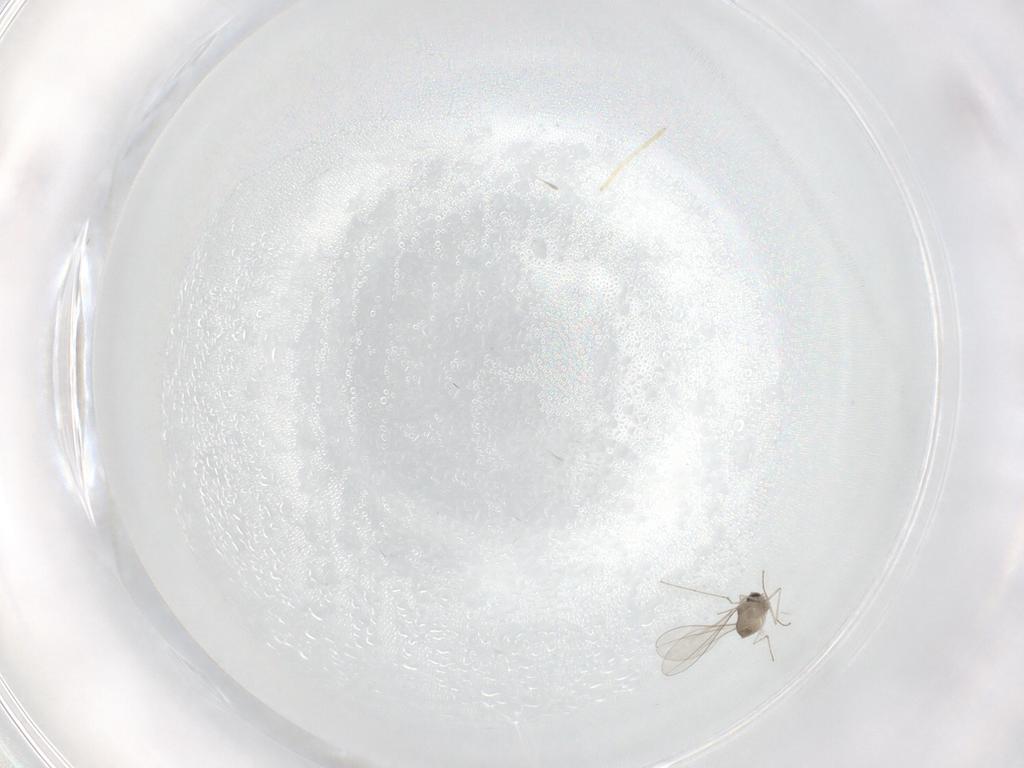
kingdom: Animalia
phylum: Arthropoda
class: Insecta
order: Diptera
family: Cecidomyiidae
